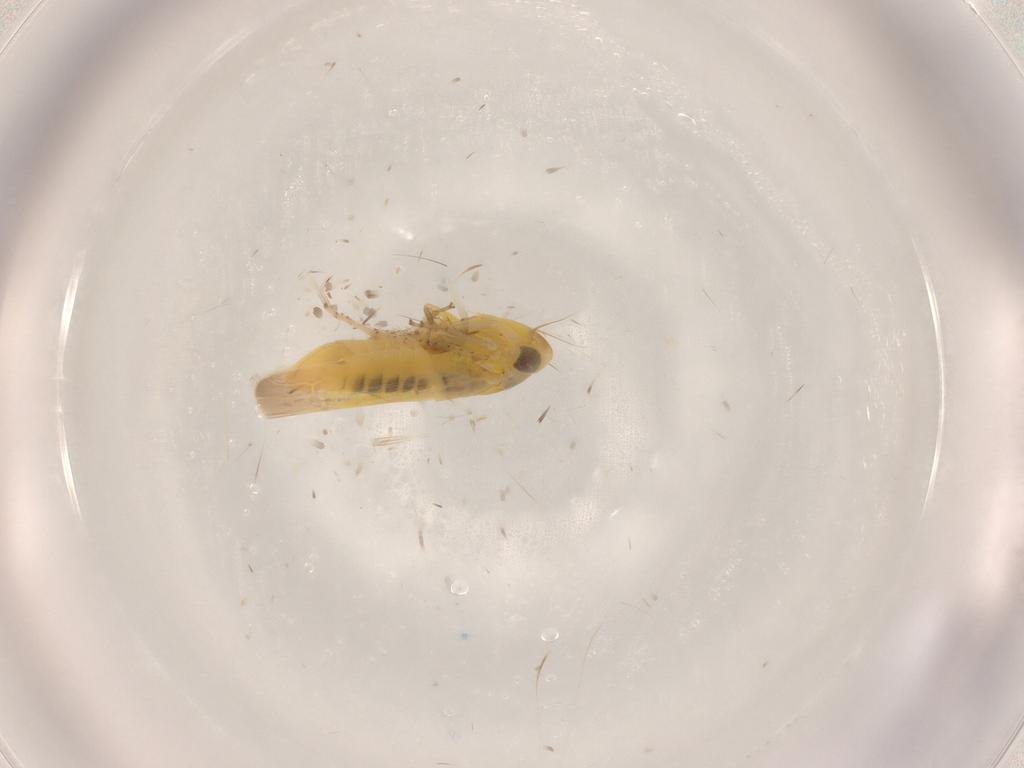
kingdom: Animalia
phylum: Arthropoda
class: Insecta
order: Hemiptera
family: Cicadellidae
